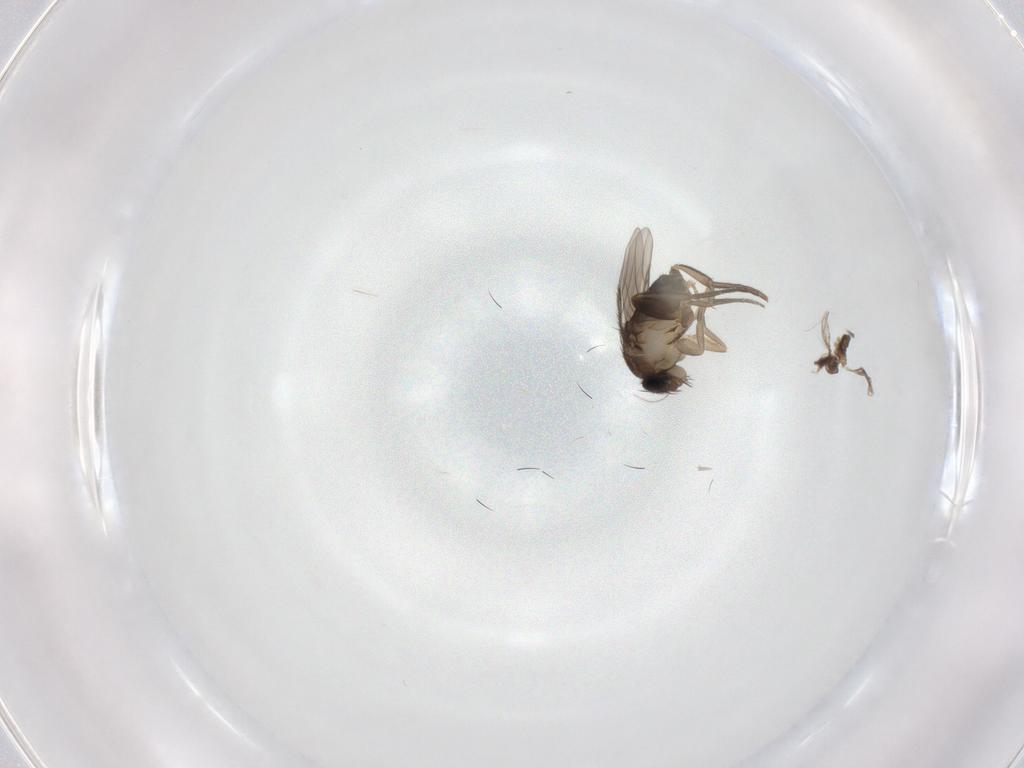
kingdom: Animalia
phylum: Arthropoda
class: Insecta
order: Diptera
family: Phoridae
